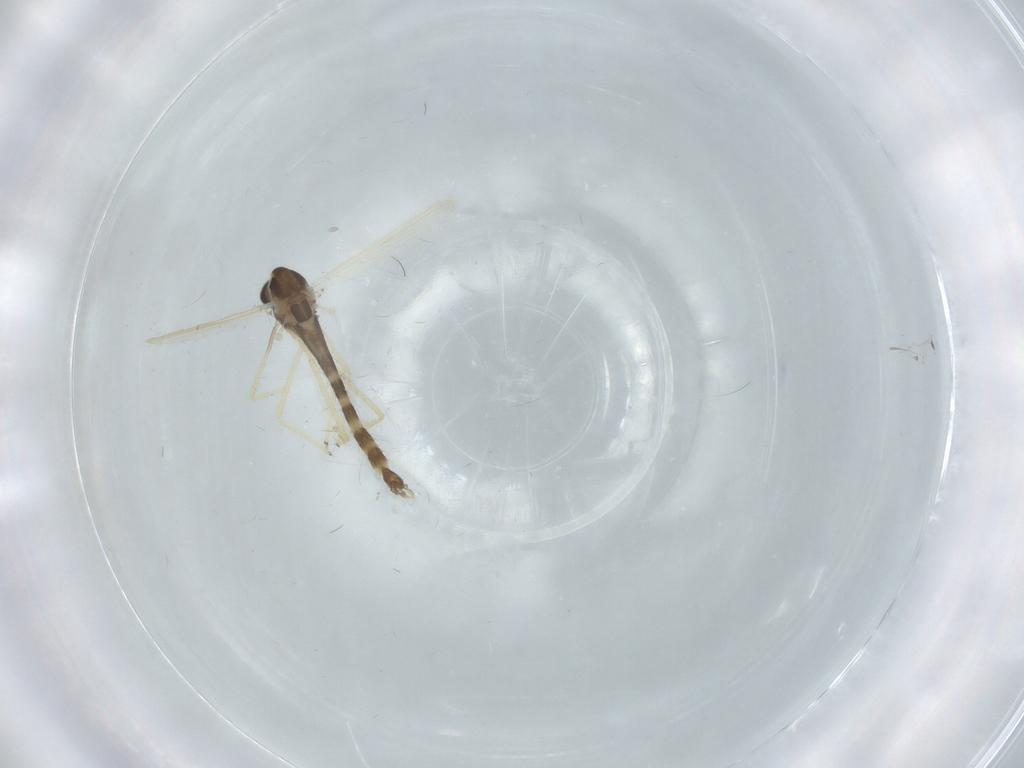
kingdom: Animalia
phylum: Arthropoda
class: Insecta
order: Diptera
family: Chironomidae
